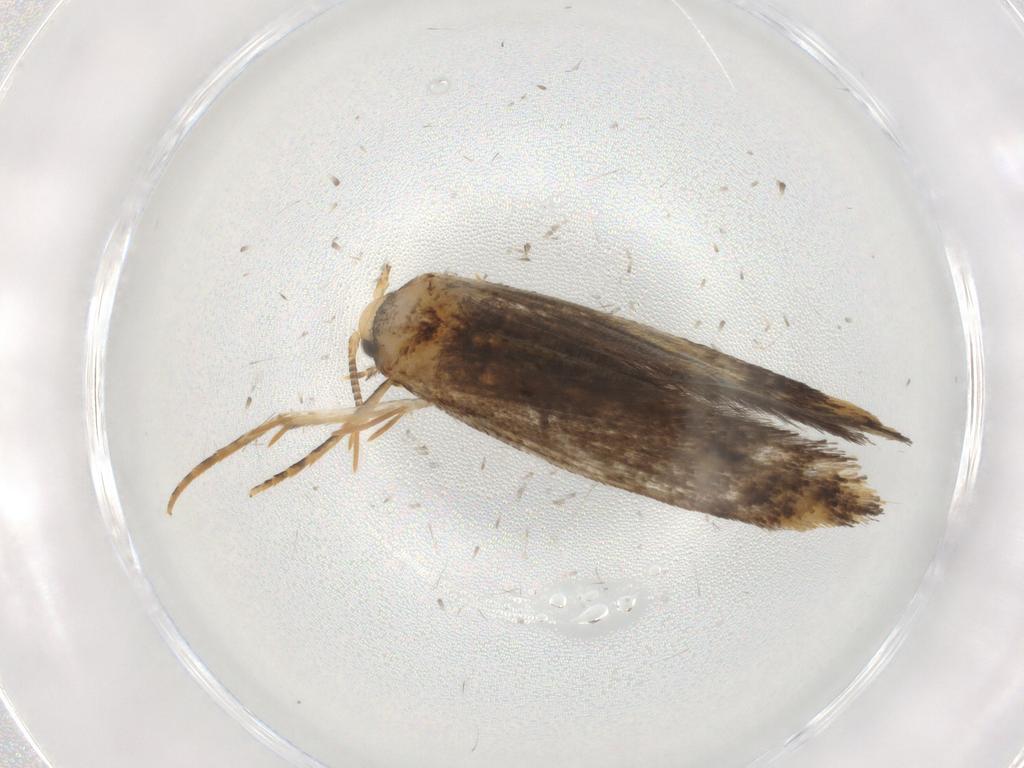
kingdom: Animalia
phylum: Arthropoda
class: Insecta
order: Lepidoptera
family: Tineidae
